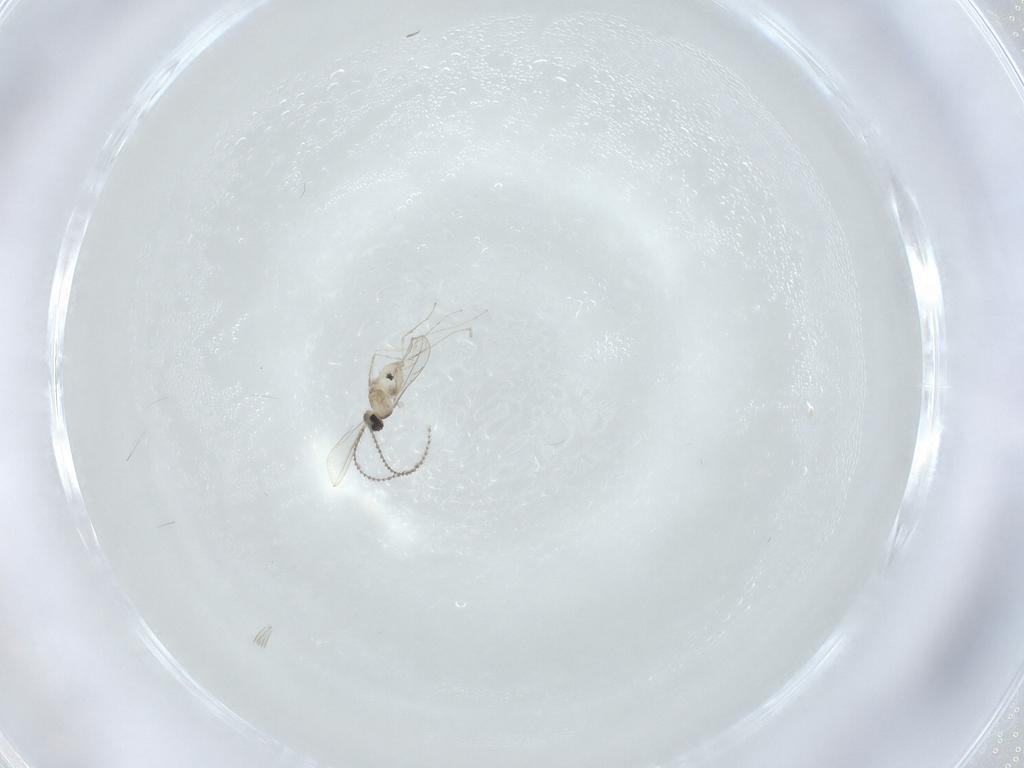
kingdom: Animalia
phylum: Arthropoda
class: Insecta
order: Diptera
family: Cecidomyiidae
